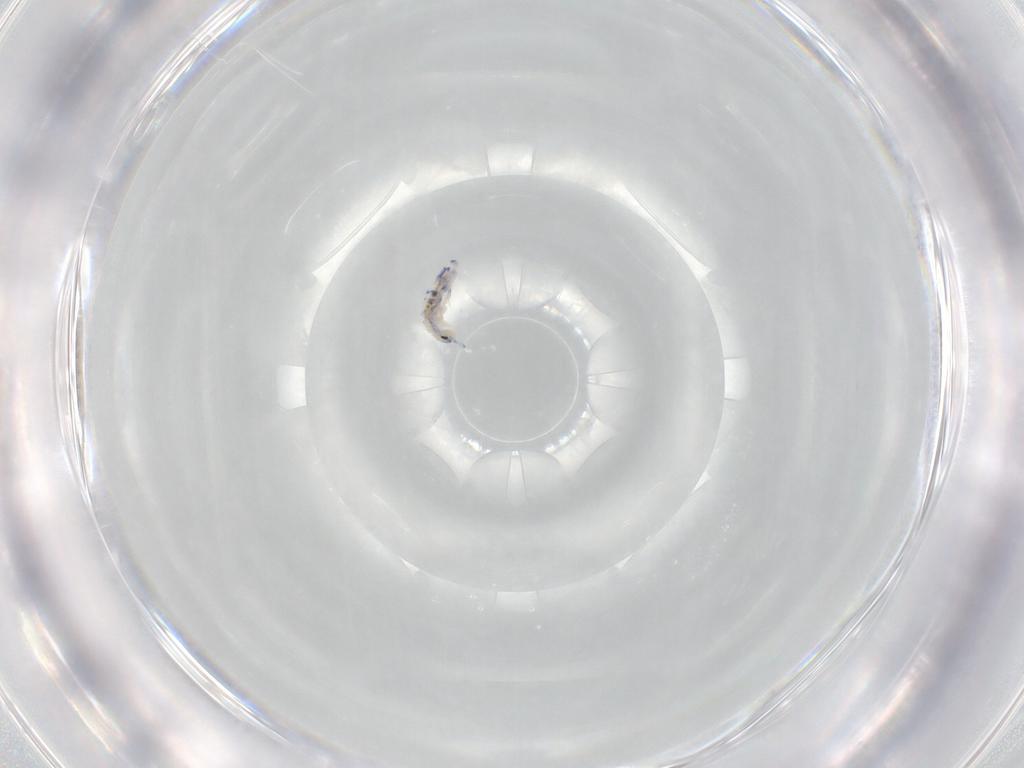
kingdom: Animalia
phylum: Arthropoda
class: Collembola
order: Entomobryomorpha
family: Entomobryidae
